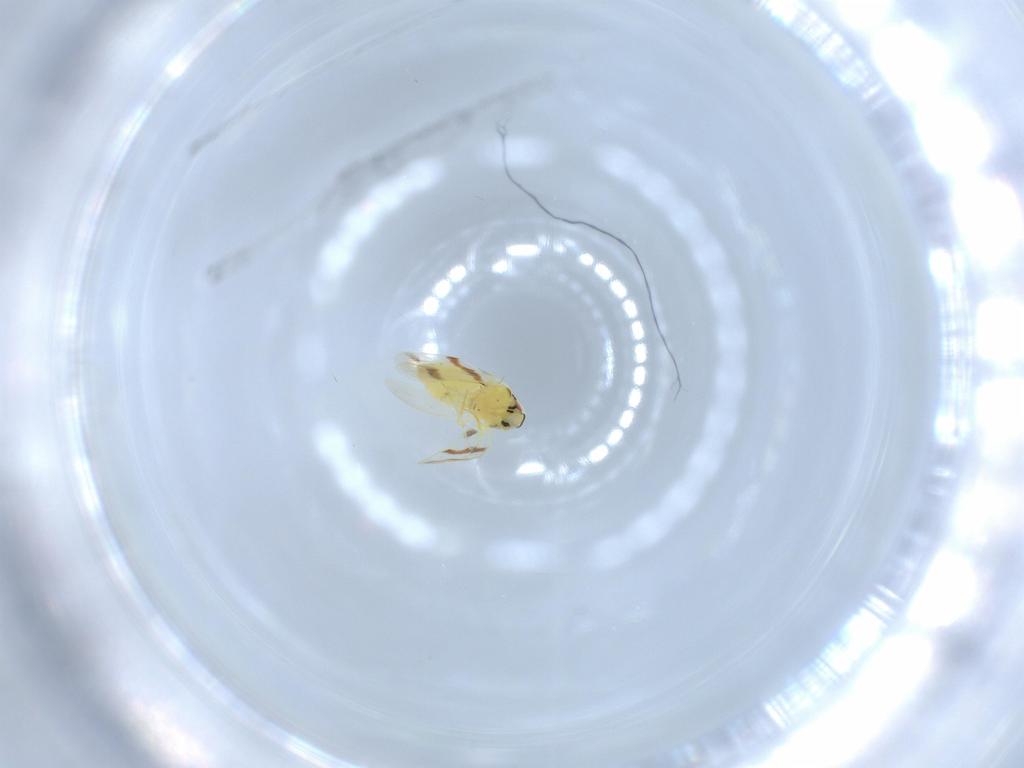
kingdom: Animalia
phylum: Arthropoda
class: Insecta
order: Hemiptera
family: Aleyrodidae
